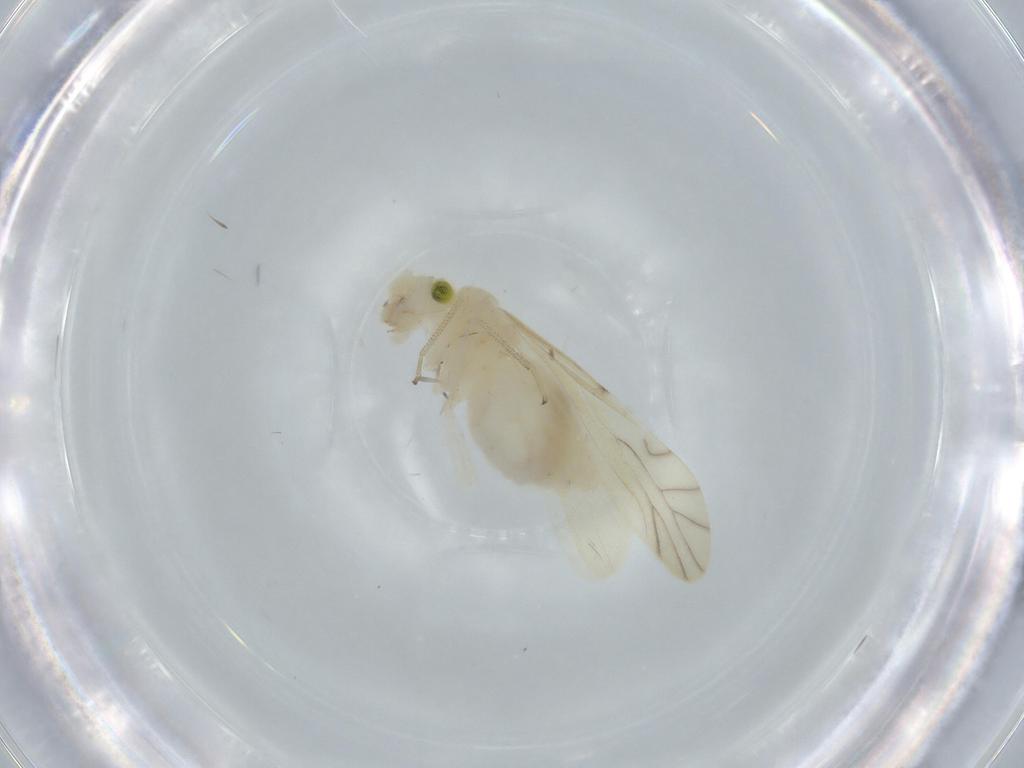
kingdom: Animalia
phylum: Arthropoda
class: Insecta
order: Psocodea
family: Caeciliusidae
